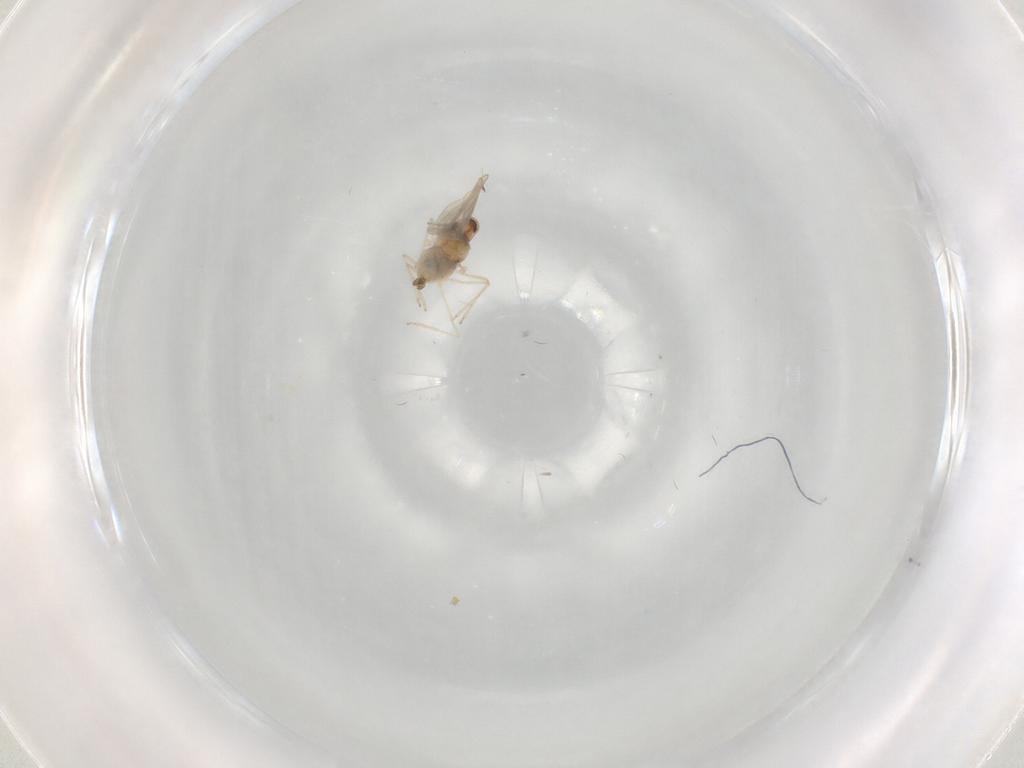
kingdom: Animalia
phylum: Arthropoda
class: Insecta
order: Diptera
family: Cecidomyiidae
